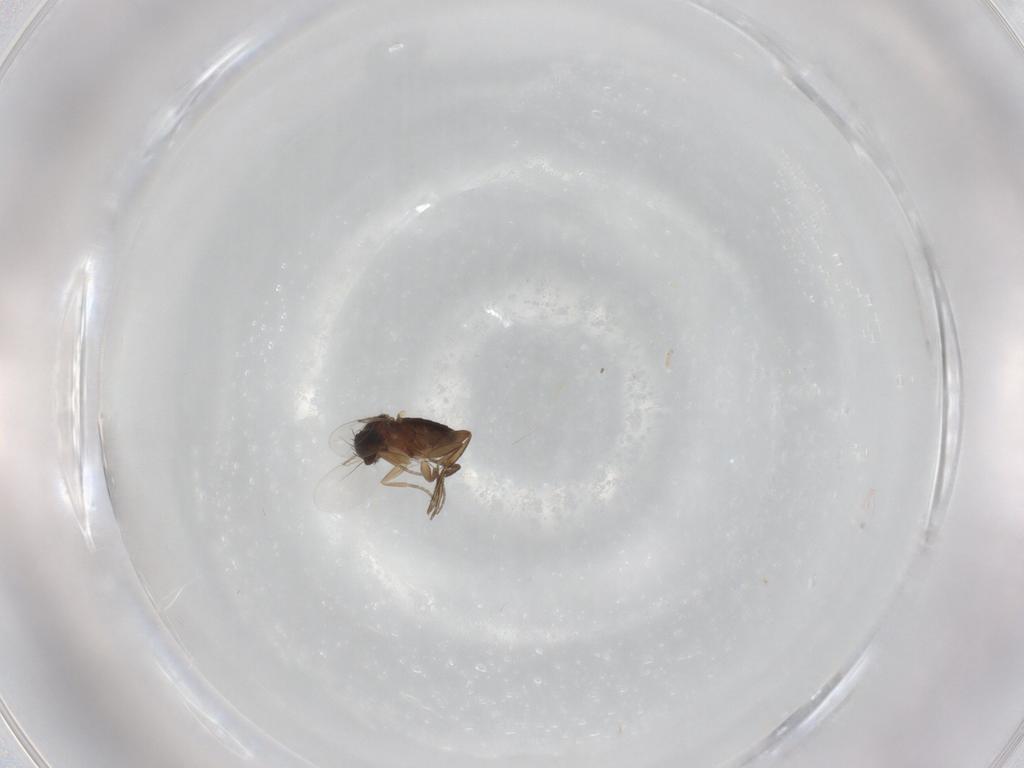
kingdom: Animalia
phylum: Arthropoda
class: Insecta
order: Diptera
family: Phoridae
